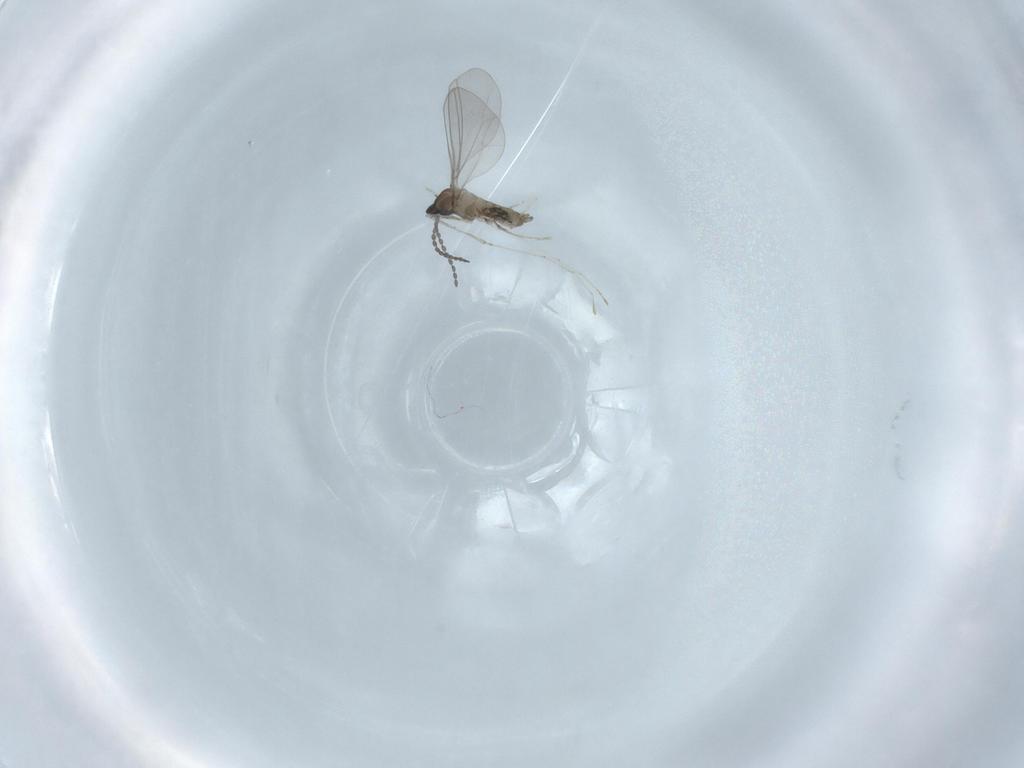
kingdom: Animalia
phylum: Arthropoda
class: Insecta
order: Diptera
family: Cecidomyiidae
